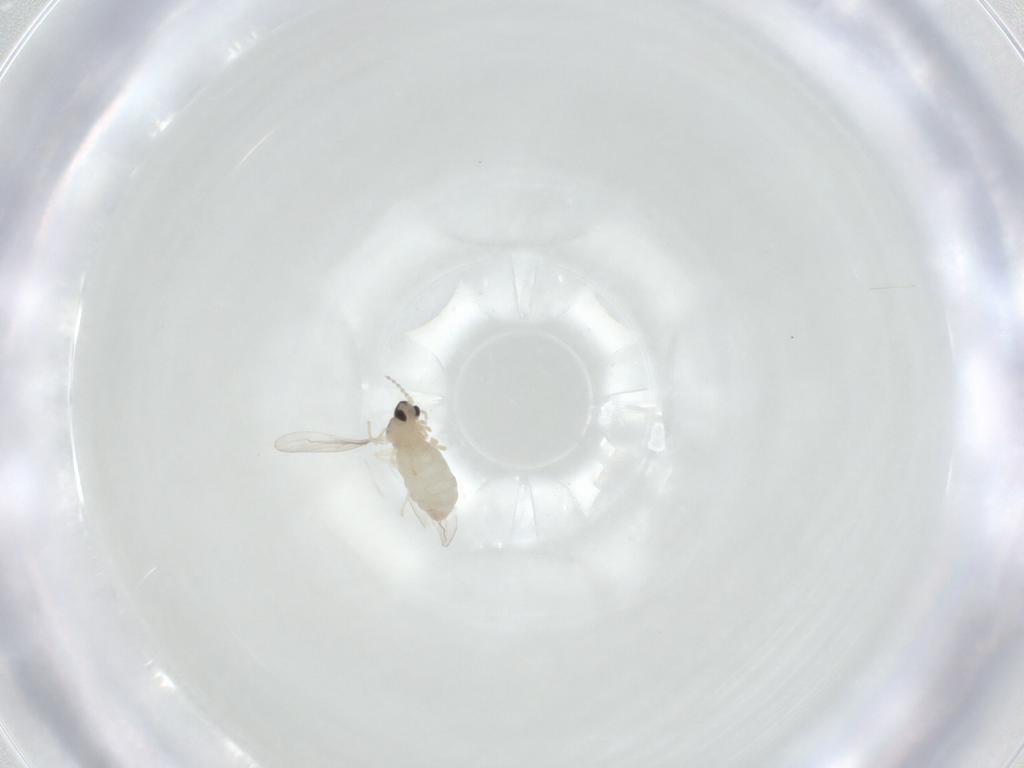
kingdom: Animalia
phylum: Arthropoda
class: Insecta
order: Diptera
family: Cecidomyiidae
